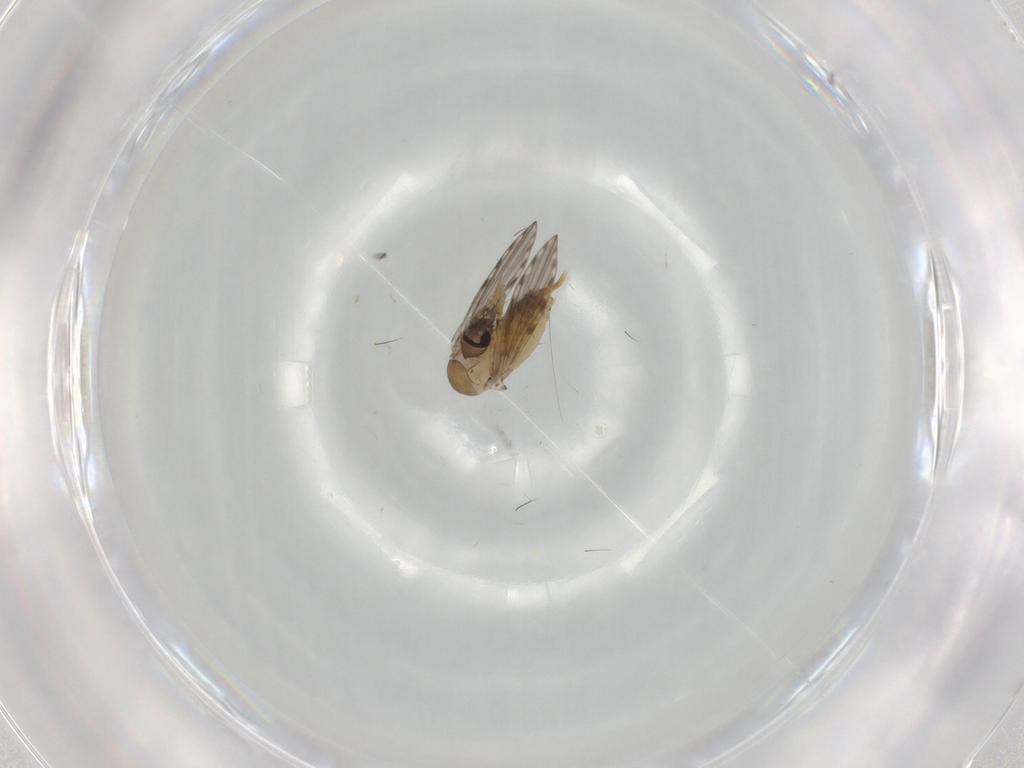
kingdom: Animalia
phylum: Arthropoda
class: Insecta
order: Diptera
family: Psychodidae
